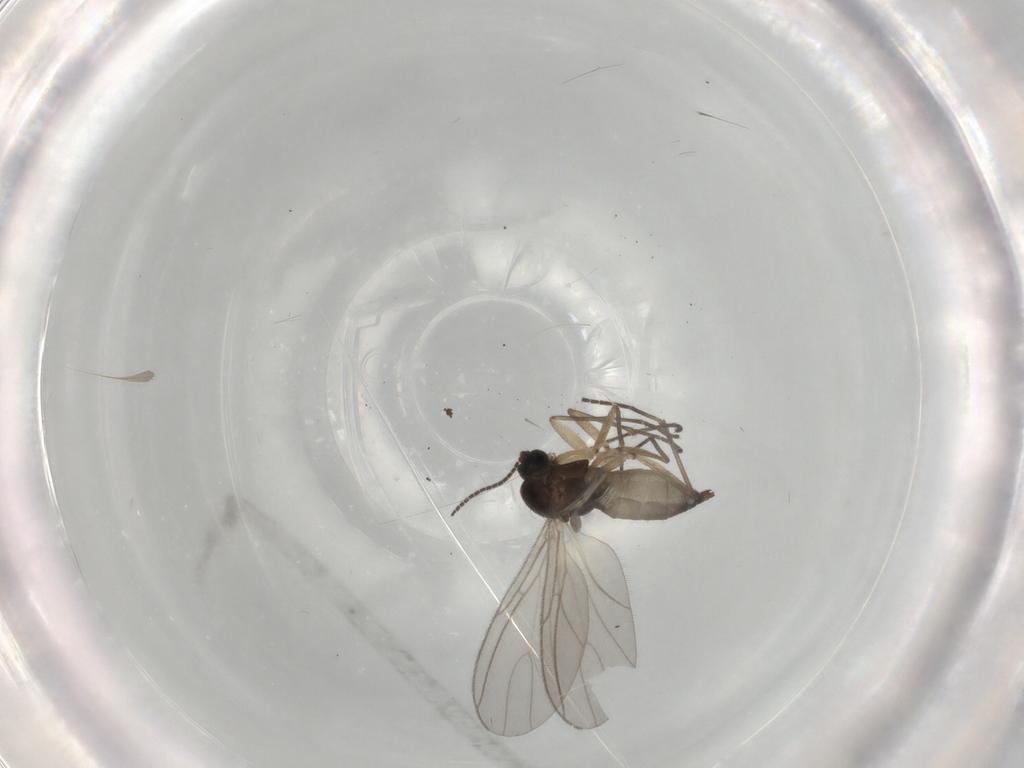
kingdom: Animalia
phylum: Arthropoda
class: Insecta
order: Diptera
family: Sciaridae
